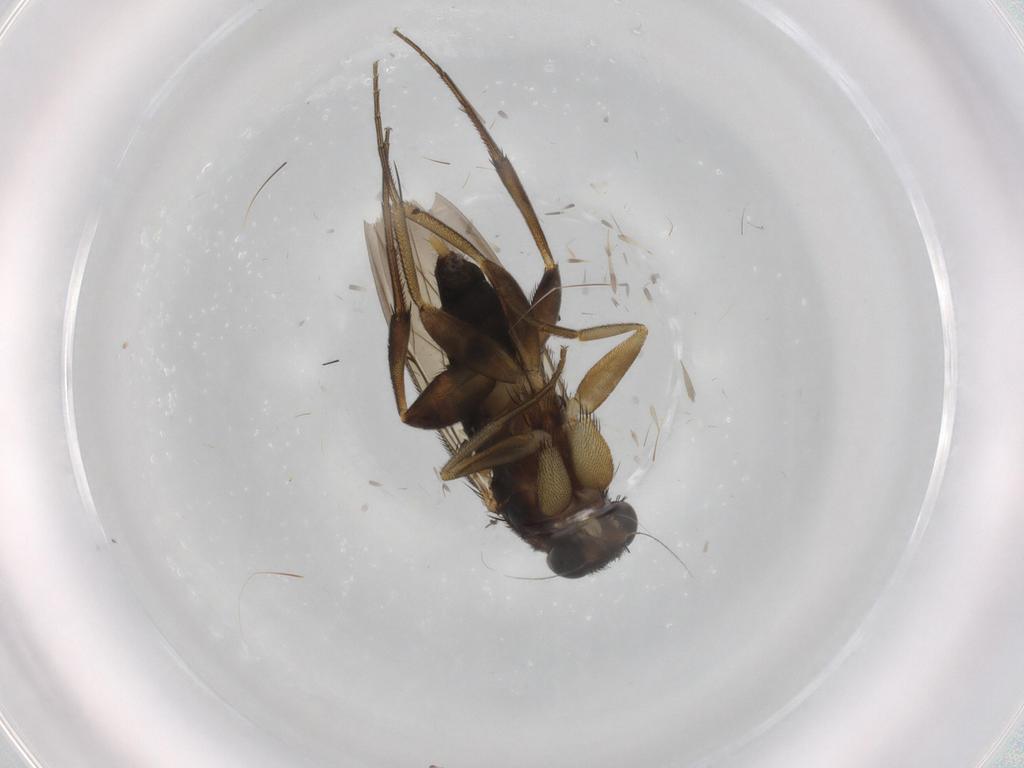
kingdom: Animalia
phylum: Arthropoda
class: Insecta
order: Diptera
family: Phoridae
